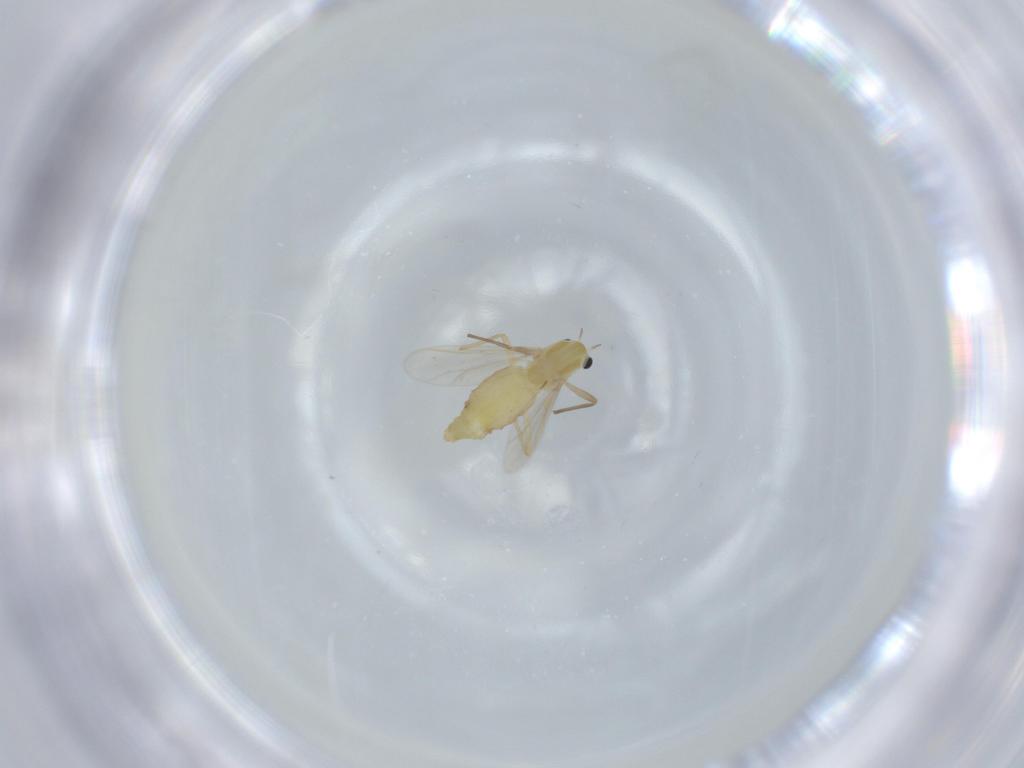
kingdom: Animalia
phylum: Arthropoda
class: Insecta
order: Diptera
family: Chironomidae
